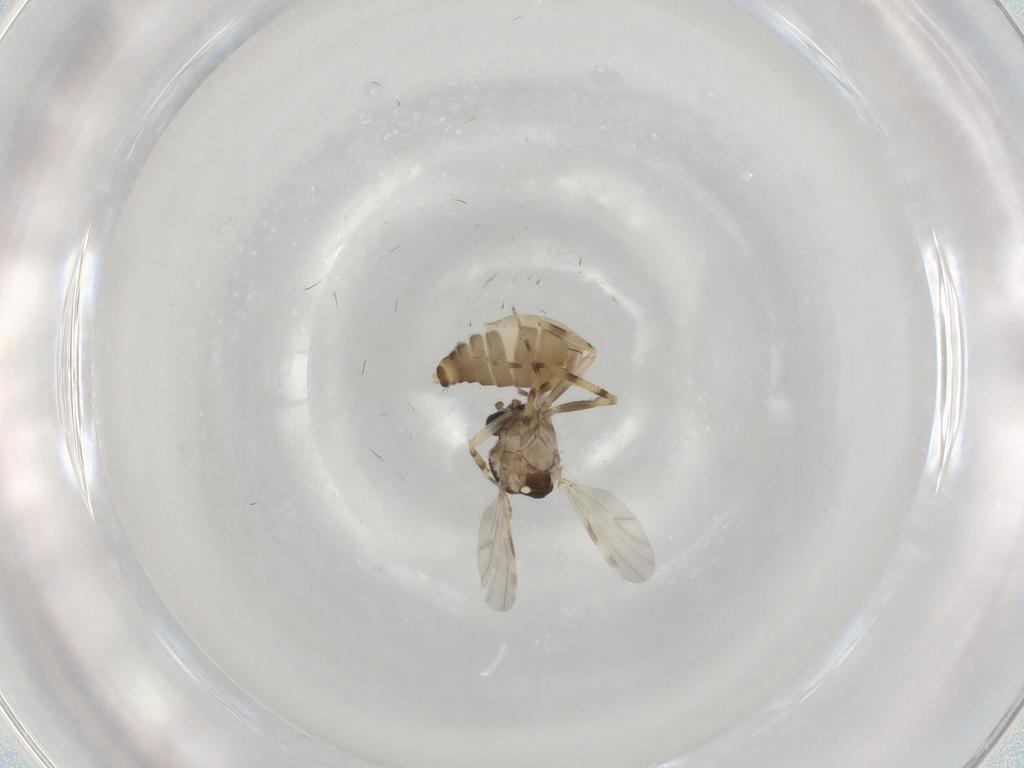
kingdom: Animalia
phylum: Arthropoda
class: Insecta
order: Diptera
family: Ceratopogonidae
